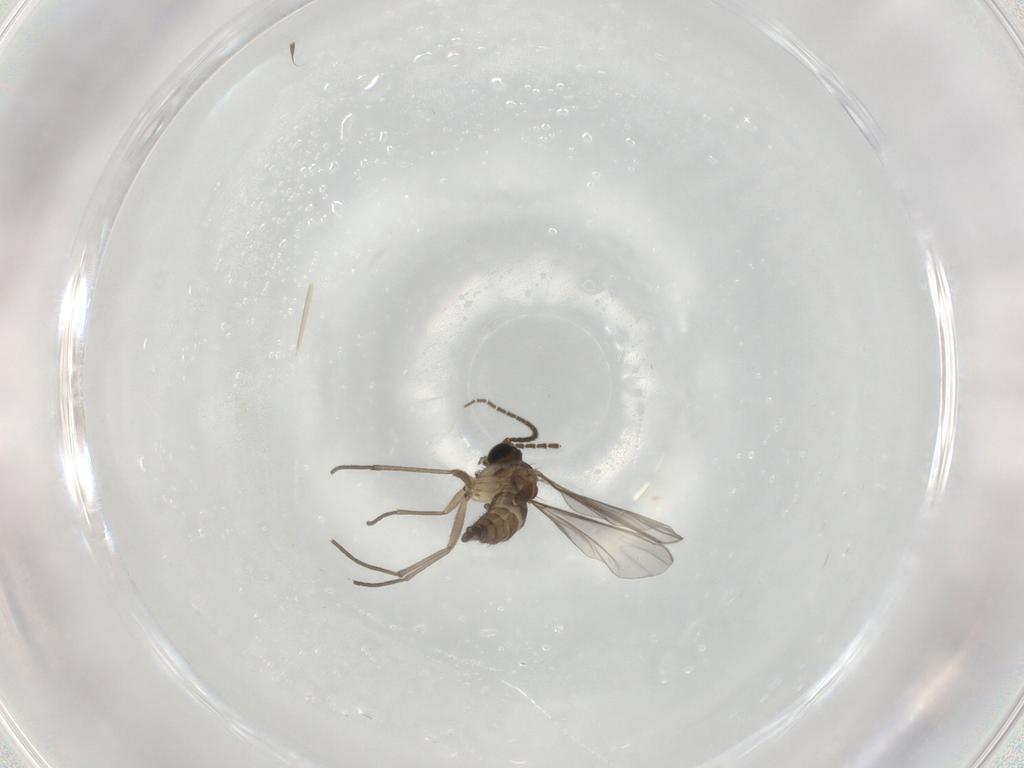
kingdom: Animalia
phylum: Arthropoda
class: Insecta
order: Diptera
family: Sciaridae
